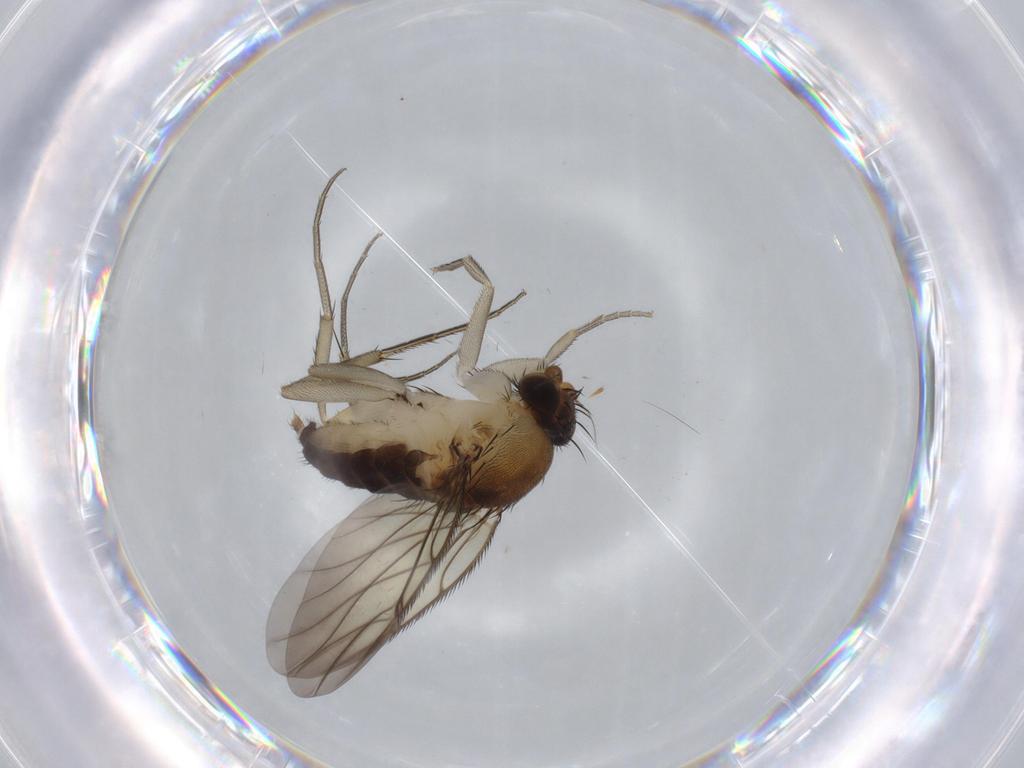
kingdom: Animalia
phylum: Arthropoda
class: Insecta
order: Diptera
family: Phoridae
